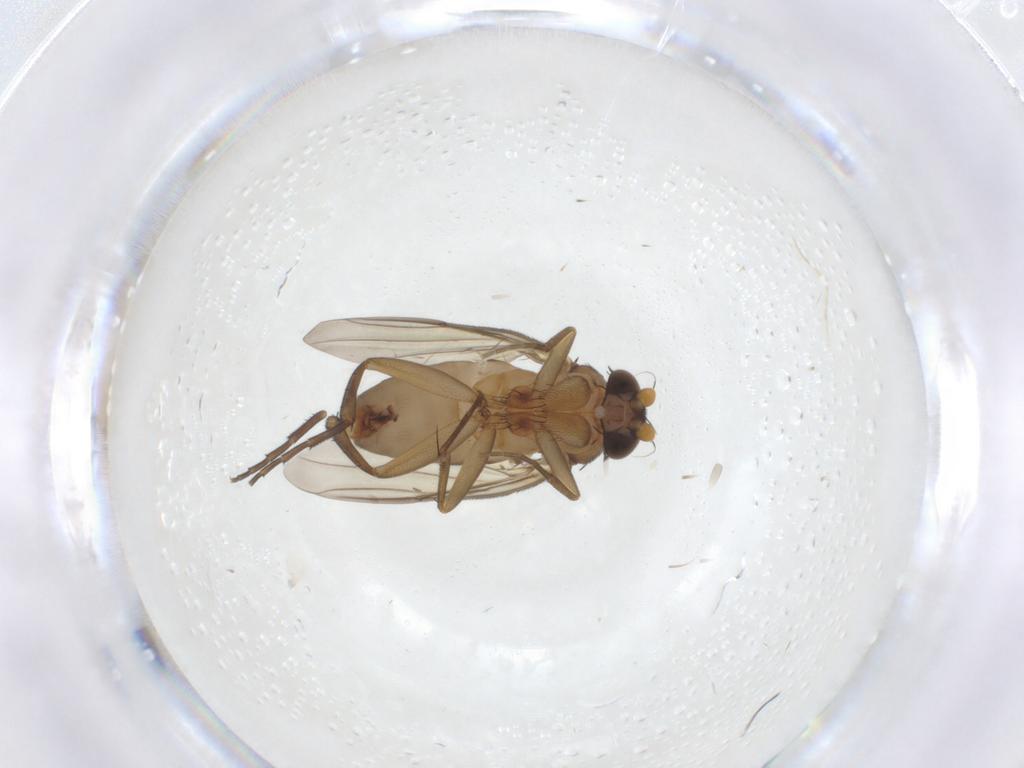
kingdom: Animalia
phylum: Arthropoda
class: Insecta
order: Diptera
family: Phoridae
